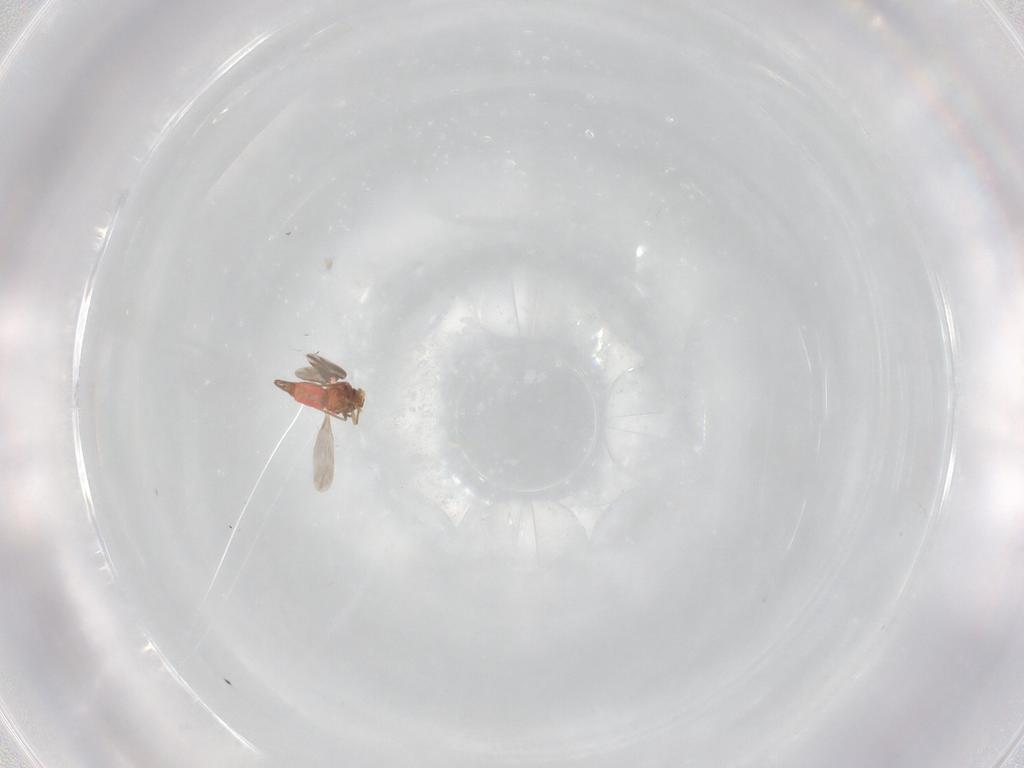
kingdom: Animalia
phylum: Arthropoda
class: Insecta
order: Hemiptera
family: Aleyrodidae
